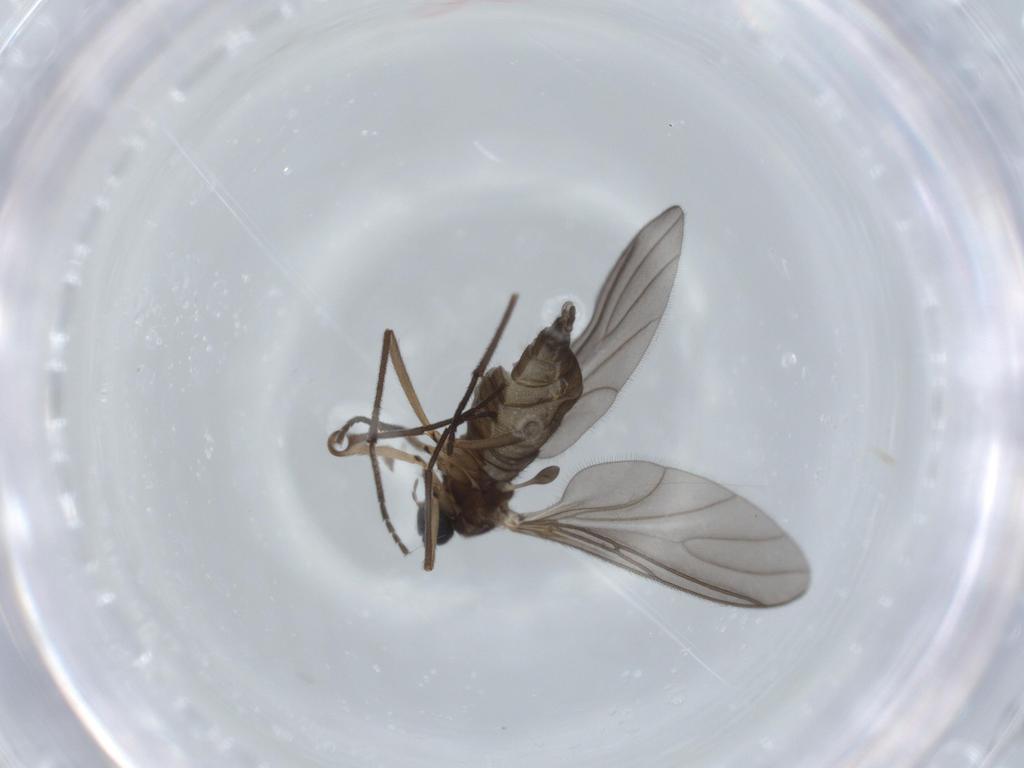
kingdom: Animalia
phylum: Arthropoda
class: Insecta
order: Diptera
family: Sciaridae
